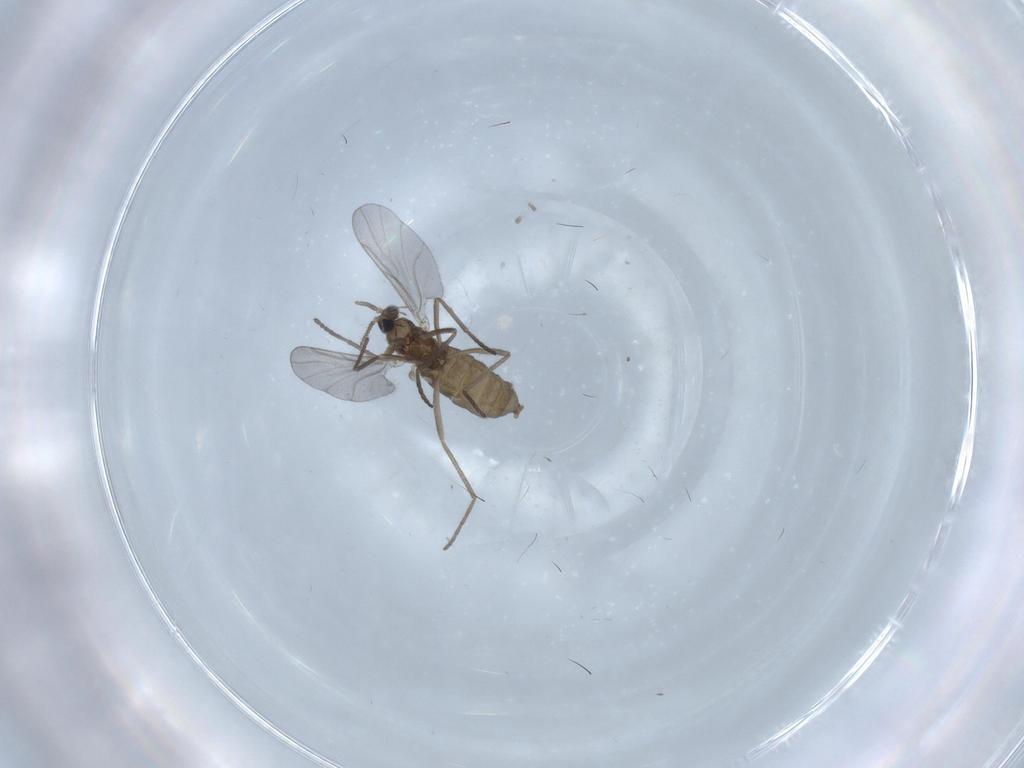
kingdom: Animalia
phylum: Arthropoda
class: Insecta
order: Diptera
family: Cecidomyiidae
